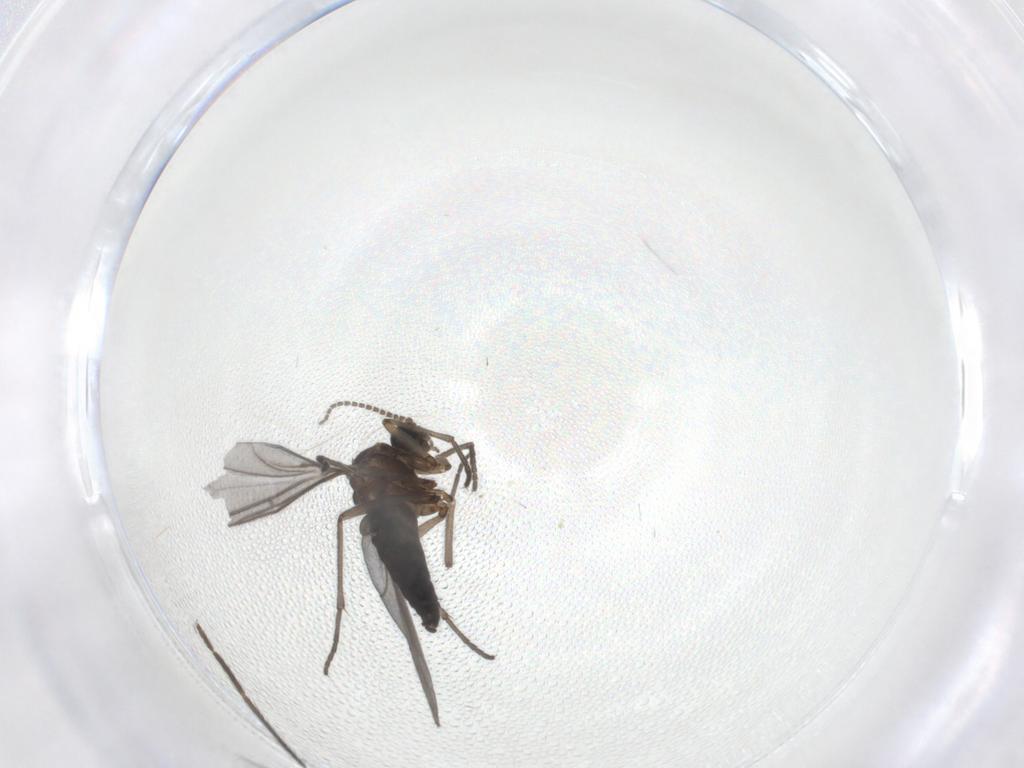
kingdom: Animalia
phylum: Arthropoda
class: Insecta
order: Diptera
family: Sciaridae
